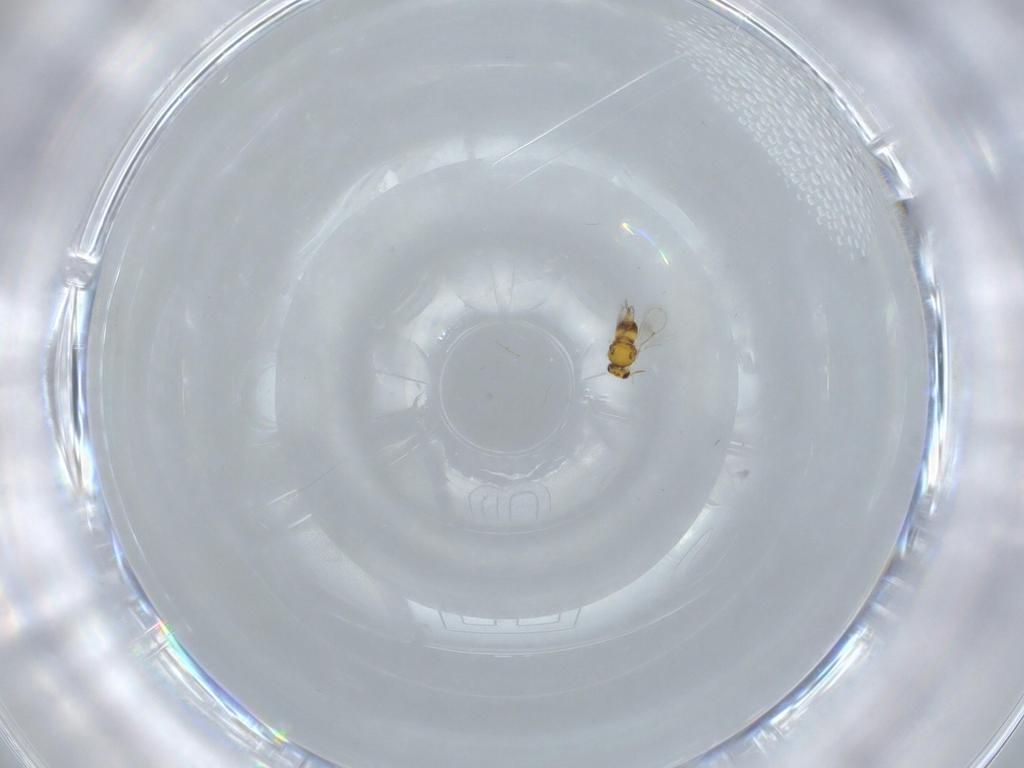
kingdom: Animalia
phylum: Arthropoda
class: Insecta
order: Hymenoptera
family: Aphelinidae
